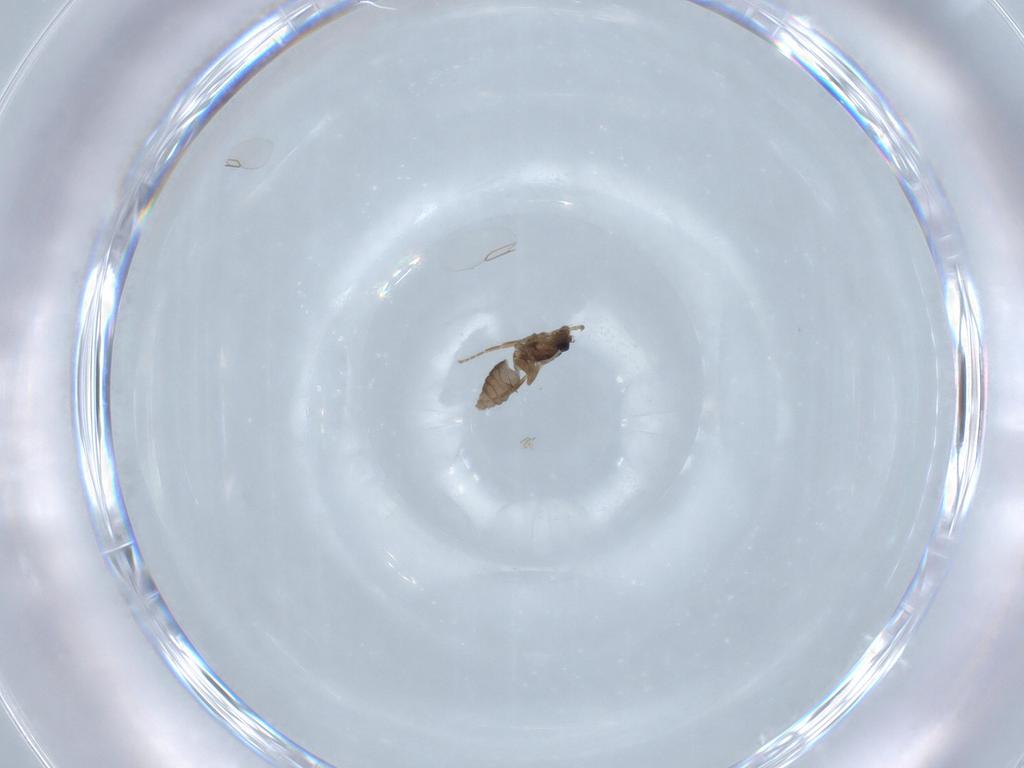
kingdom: Animalia
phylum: Arthropoda
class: Insecta
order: Diptera
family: Phoridae
